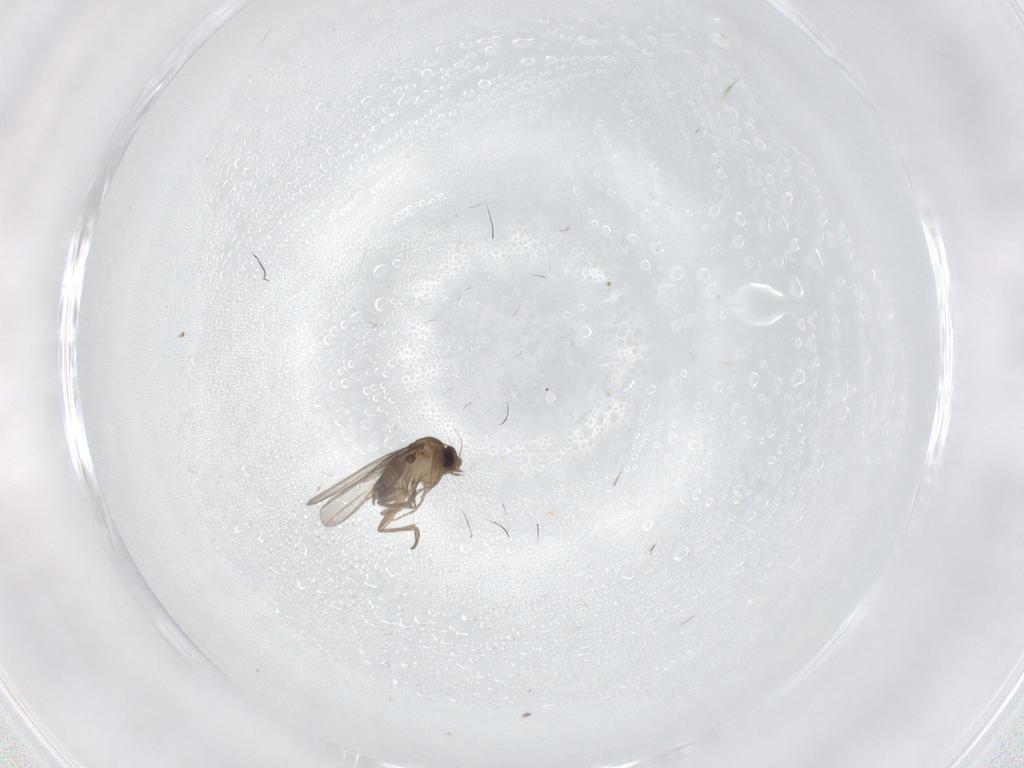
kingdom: Animalia
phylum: Arthropoda
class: Insecta
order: Diptera
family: Phoridae
